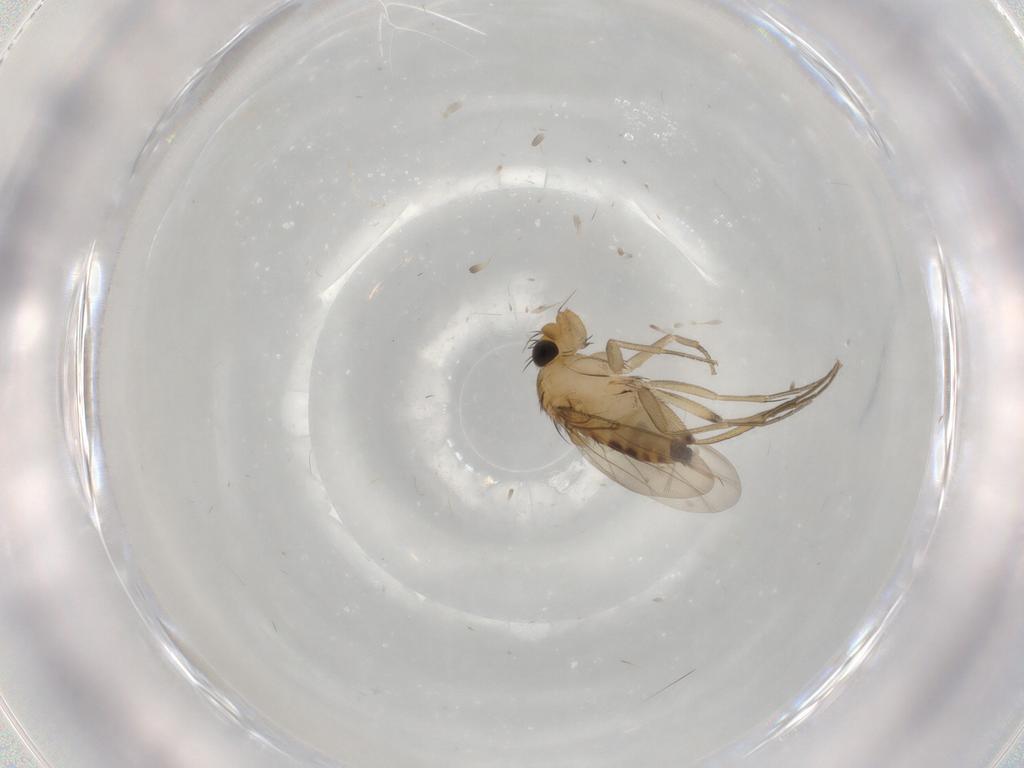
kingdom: Animalia
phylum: Arthropoda
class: Insecta
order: Diptera
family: Phoridae
